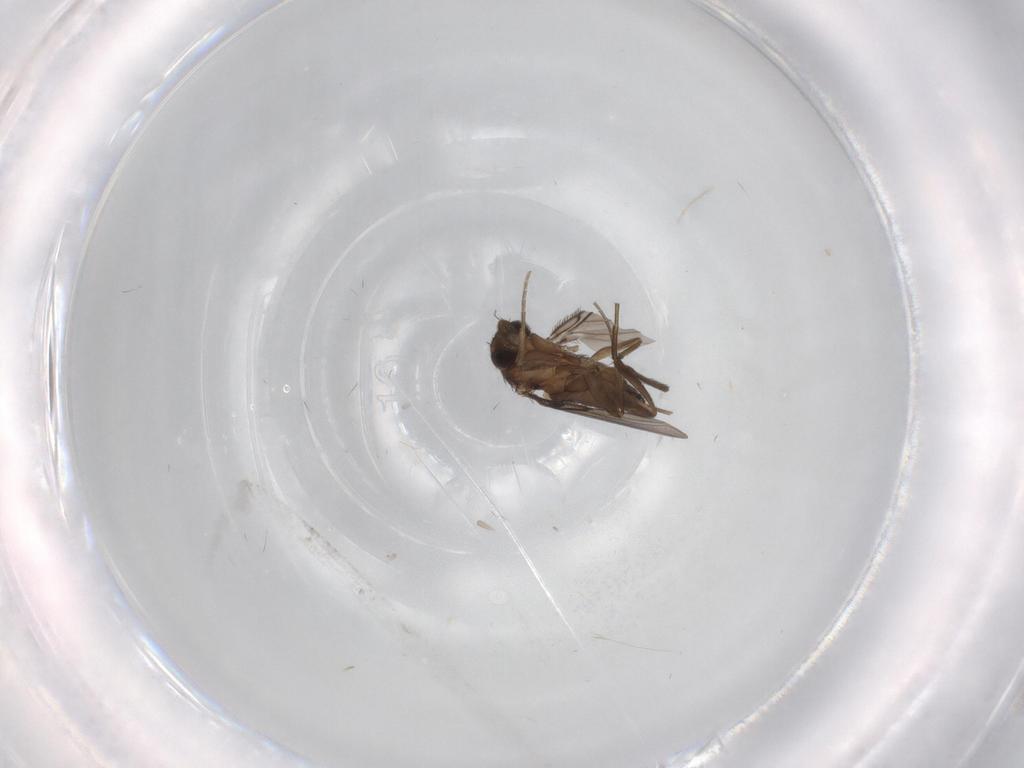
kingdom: Animalia
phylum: Arthropoda
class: Insecta
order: Diptera
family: Phoridae
